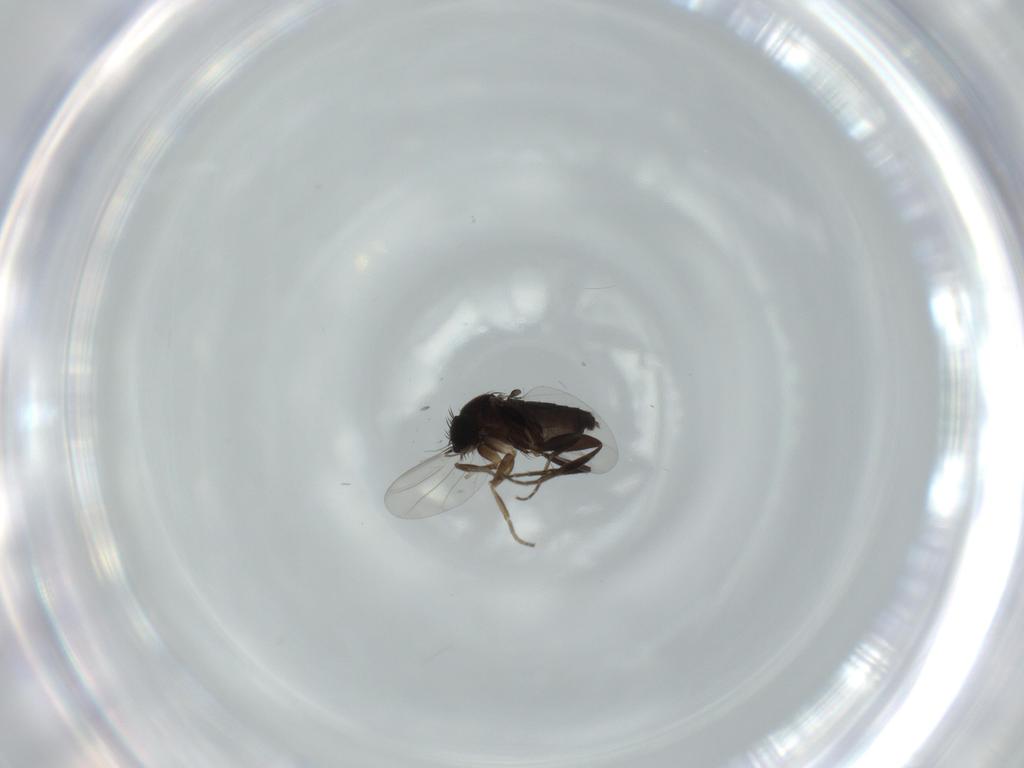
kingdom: Animalia
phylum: Arthropoda
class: Insecta
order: Diptera
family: Phoridae
